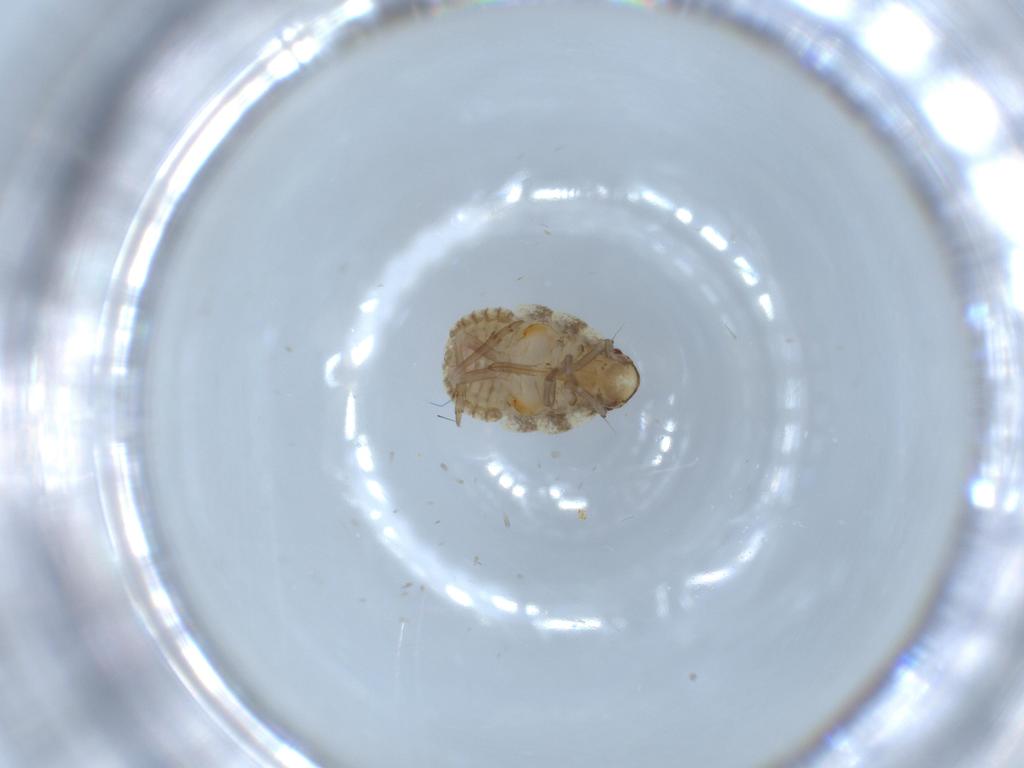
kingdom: Animalia
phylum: Arthropoda
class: Insecta
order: Hemiptera
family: Flatidae
